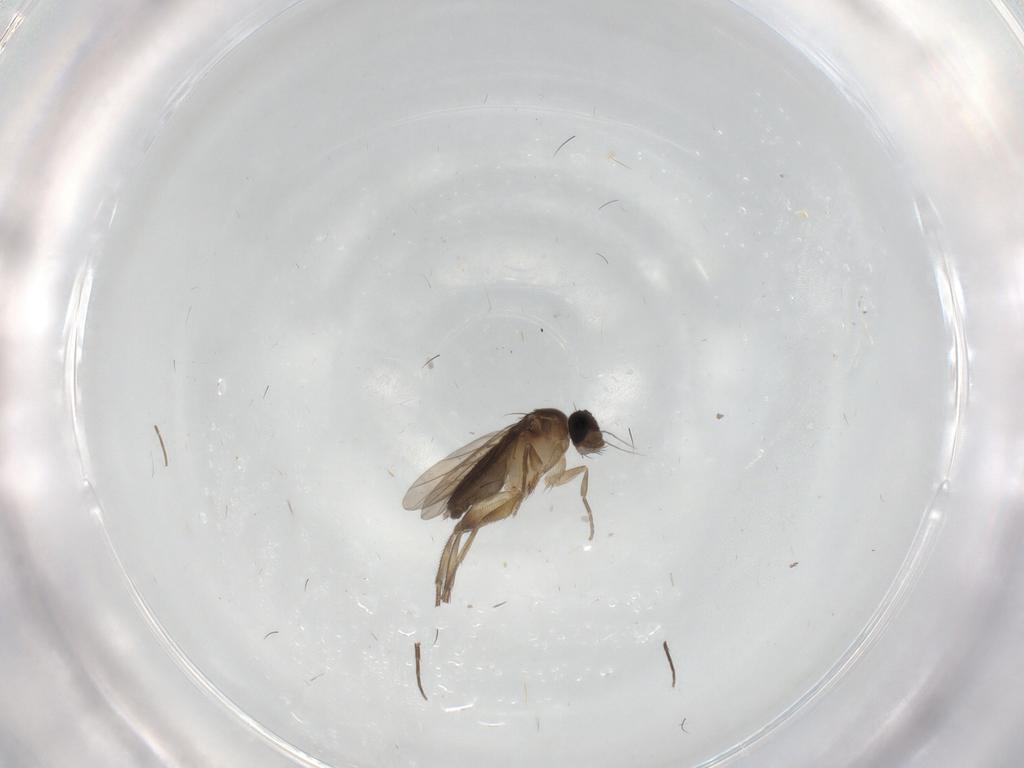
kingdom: Animalia
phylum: Arthropoda
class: Insecta
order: Diptera
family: Phoridae
